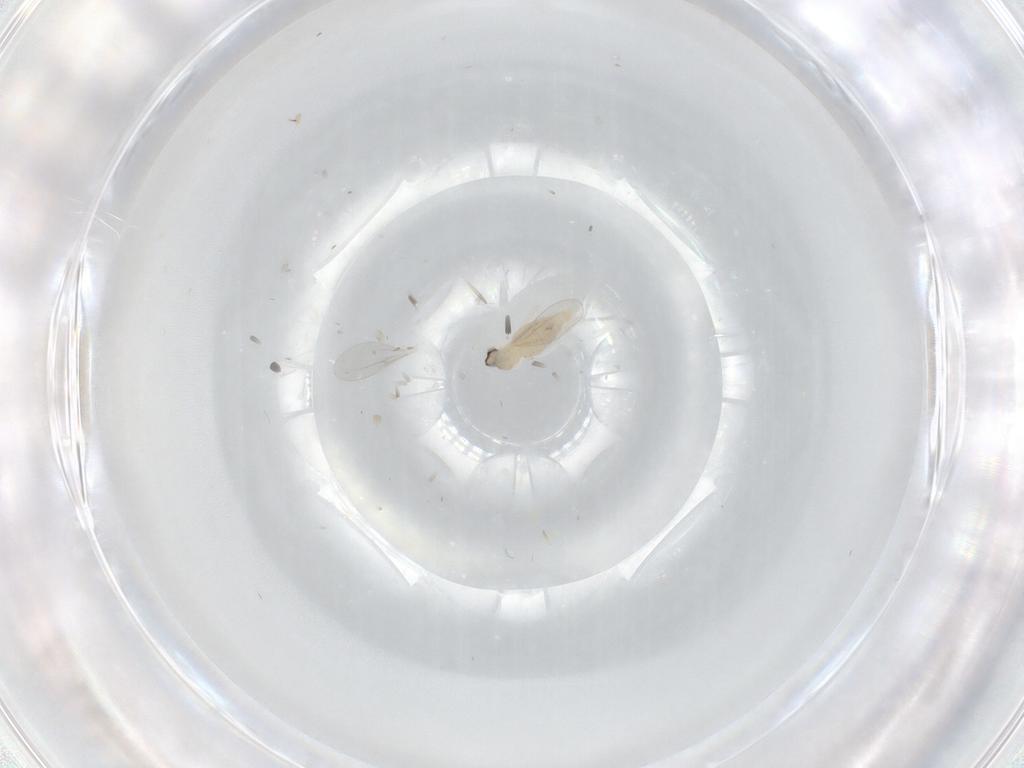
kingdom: Animalia
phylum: Arthropoda
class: Insecta
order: Diptera
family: Cecidomyiidae
